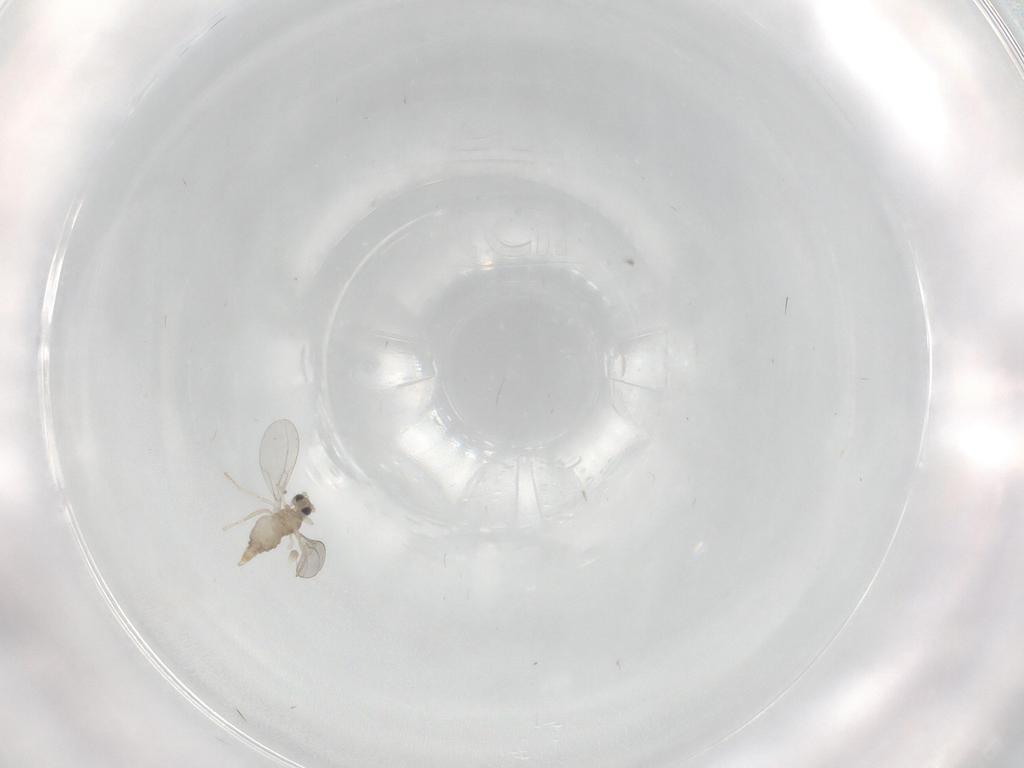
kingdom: Animalia
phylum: Arthropoda
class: Insecta
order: Diptera
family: Cecidomyiidae
